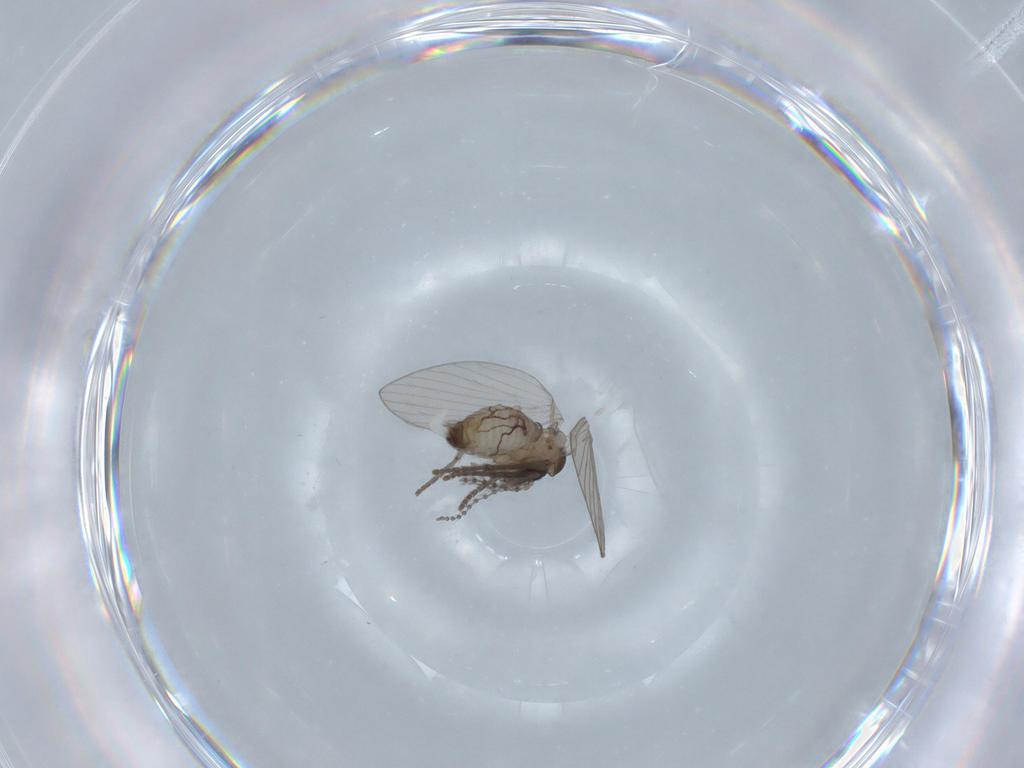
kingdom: Animalia
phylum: Arthropoda
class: Insecta
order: Diptera
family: Psychodidae
